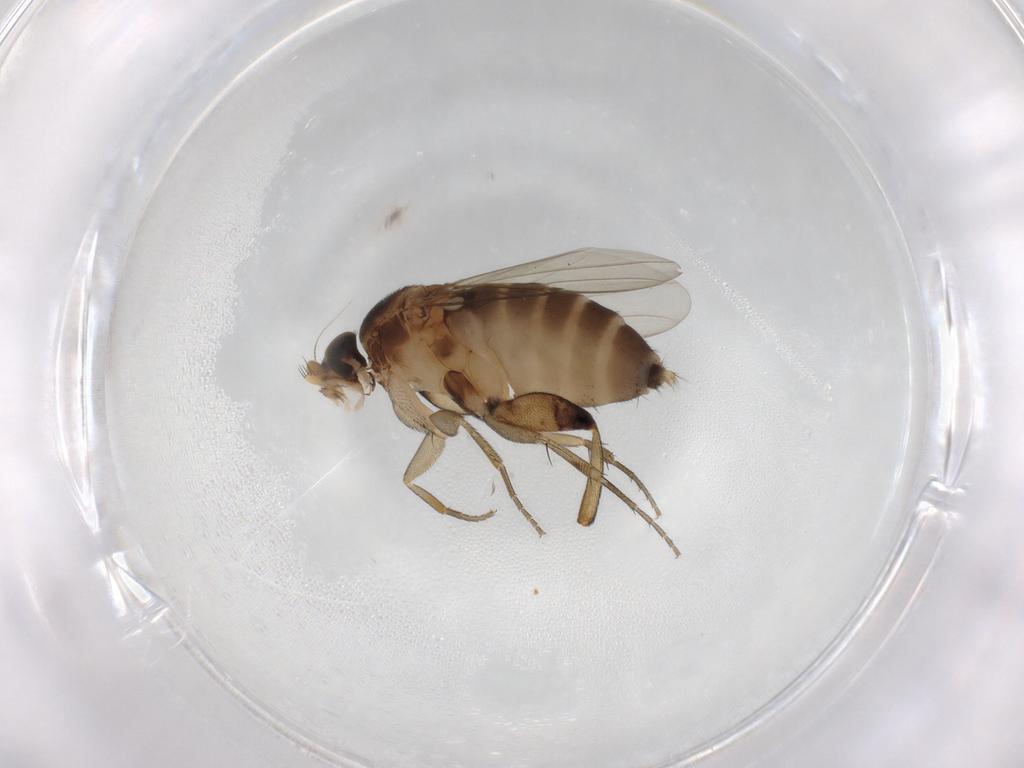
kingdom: Animalia
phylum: Arthropoda
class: Insecta
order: Diptera
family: Phoridae
